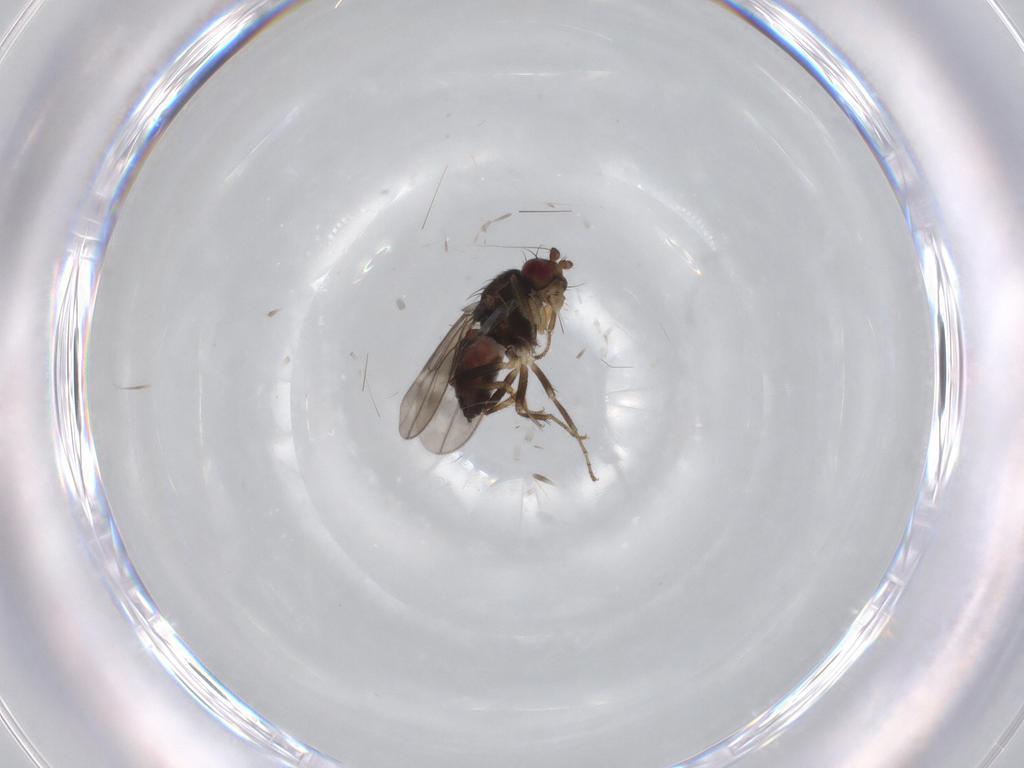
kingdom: Animalia
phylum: Arthropoda
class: Insecta
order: Diptera
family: Sphaeroceridae
